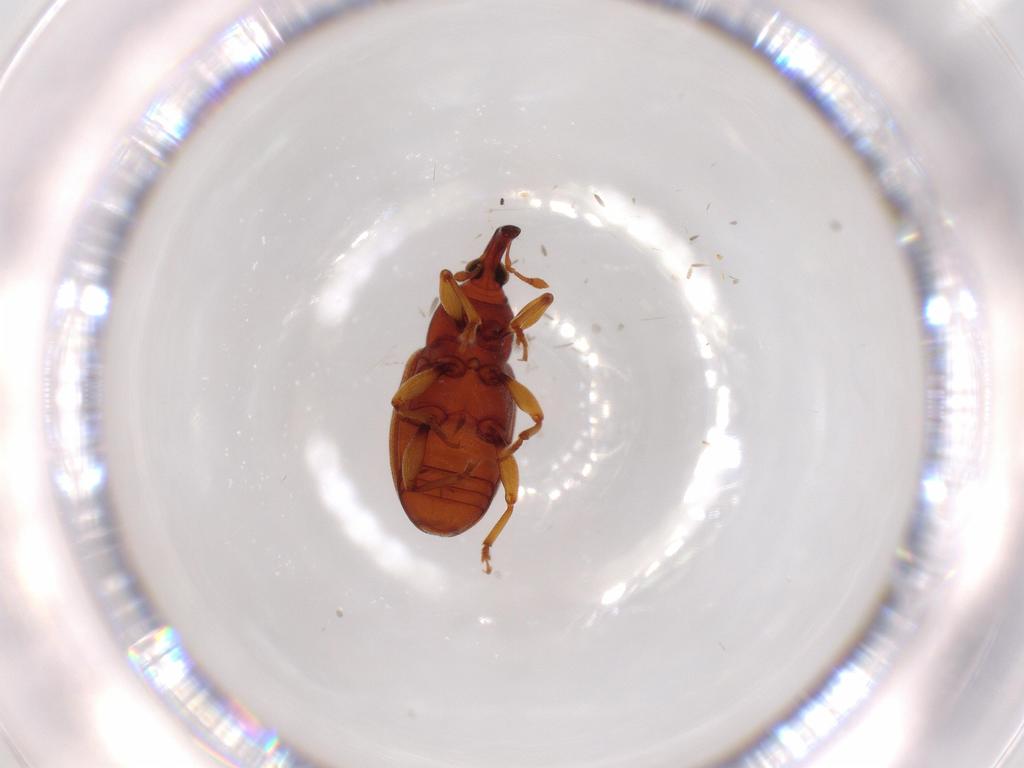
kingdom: Animalia
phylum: Arthropoda
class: Insecta
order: Coleoptera
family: Curculionidae
